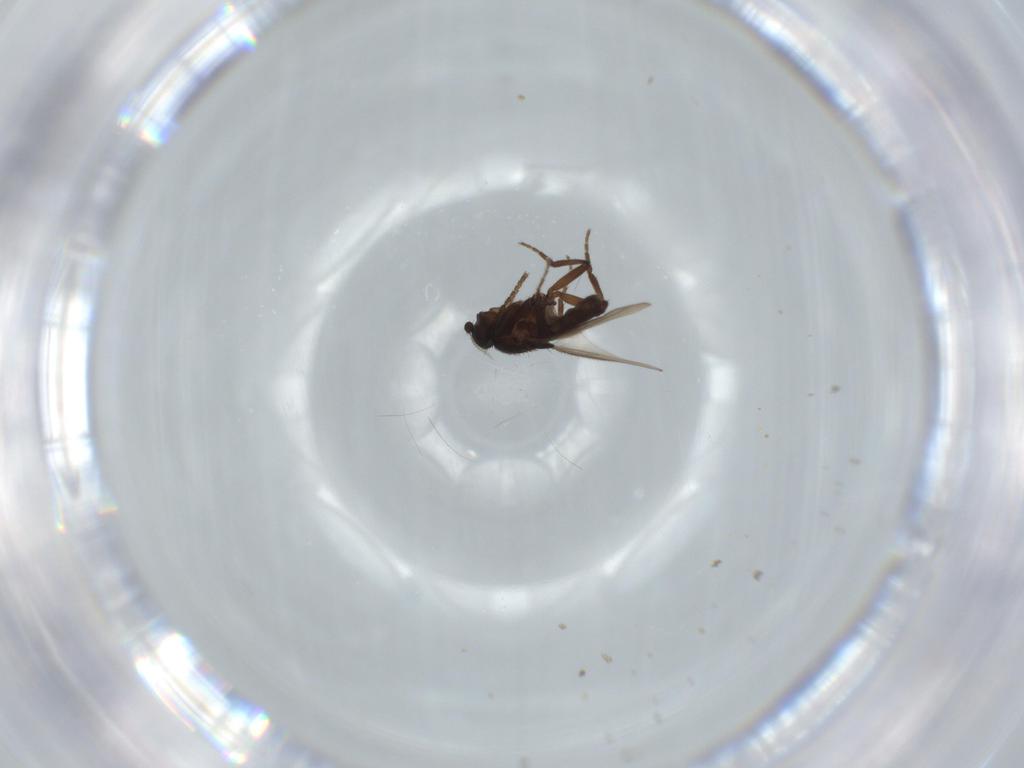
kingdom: Animalia
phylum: Arthropoda
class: Insecta
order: Diptera
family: Sphaeroceridae
